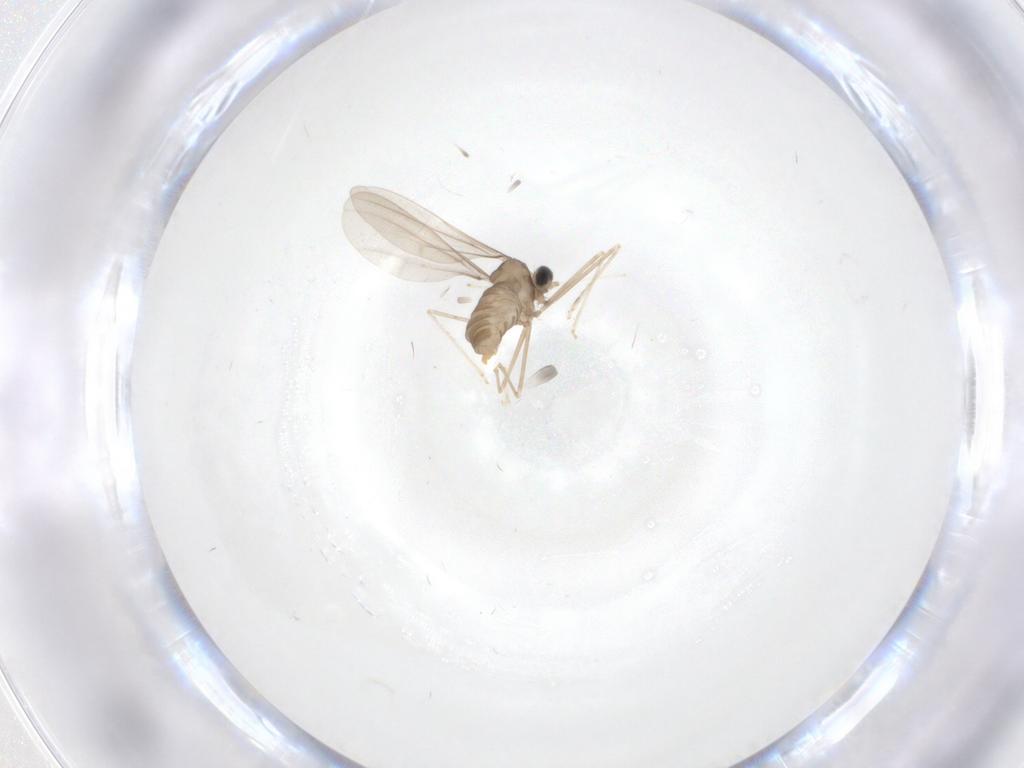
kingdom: Animalia
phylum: Arthropoda
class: Insecta
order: Diptera
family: Cecidomyiidae
